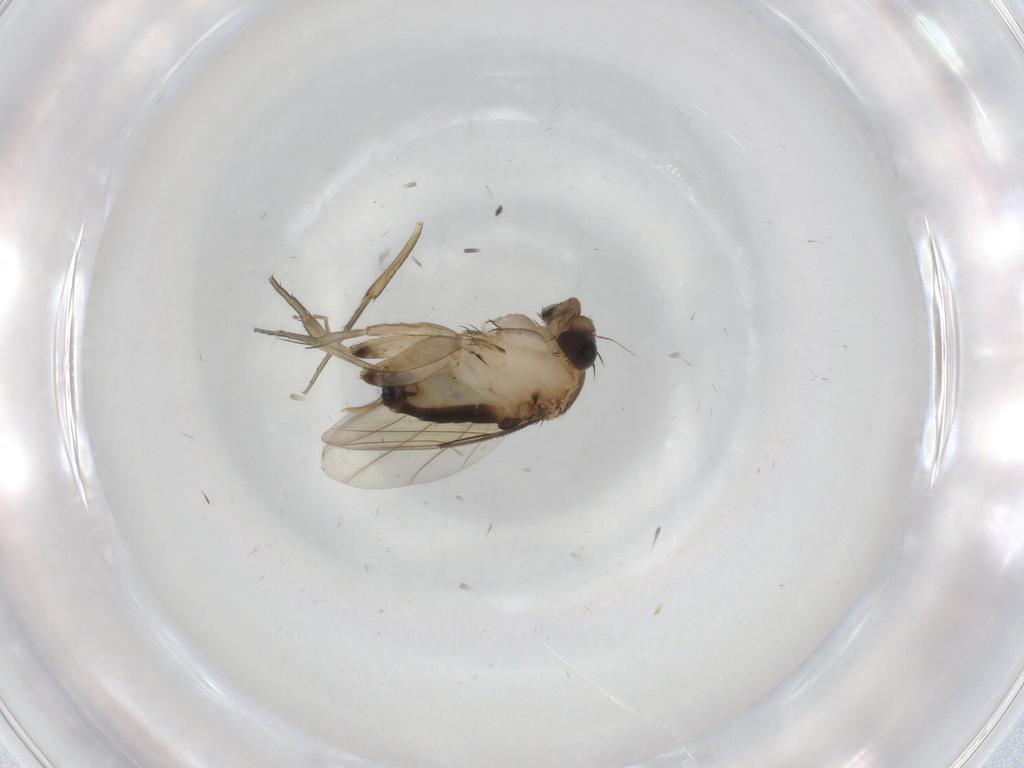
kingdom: Animalia
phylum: Arthropoda
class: Insecta
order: Diptera
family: Phoridae
